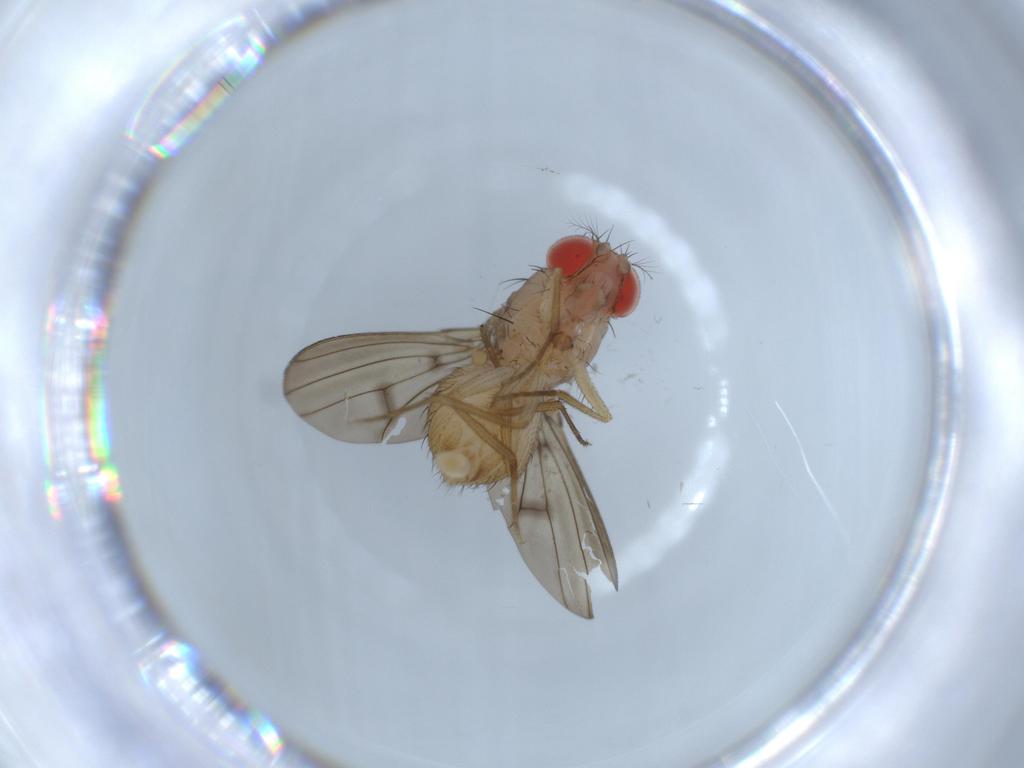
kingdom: Animalia
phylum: Arthropoda
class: Insecta
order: Diptera
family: Drosophilidae
